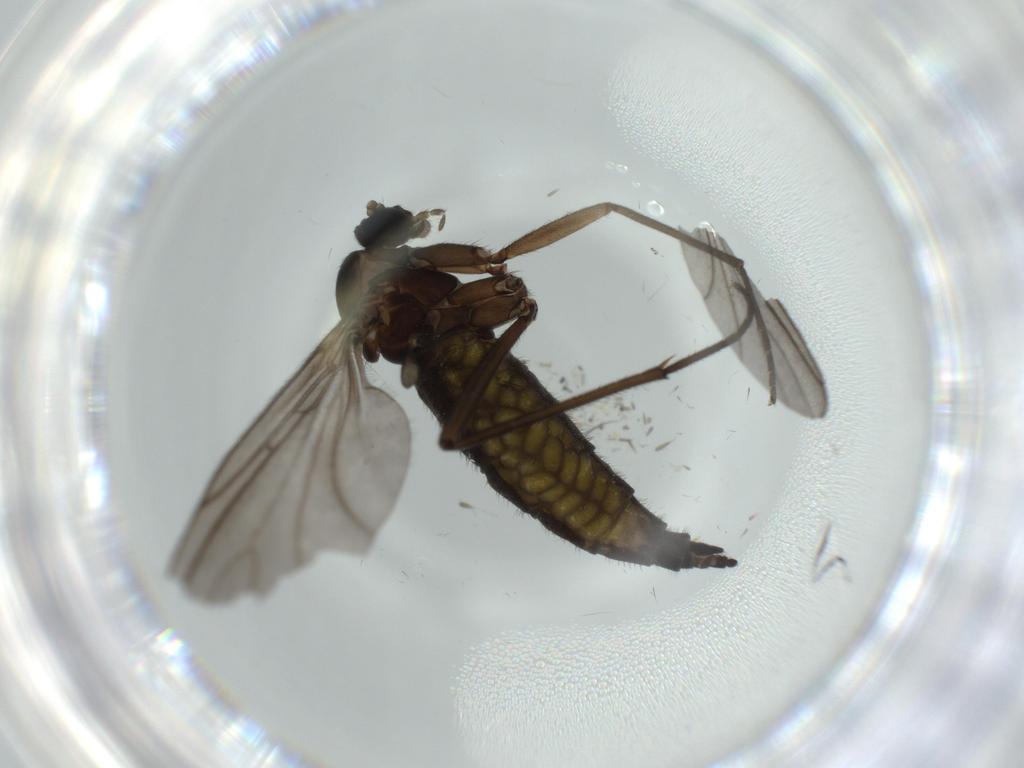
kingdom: Animalia
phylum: Arthropoda
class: Insecta
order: Diptera
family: Sciaridae
